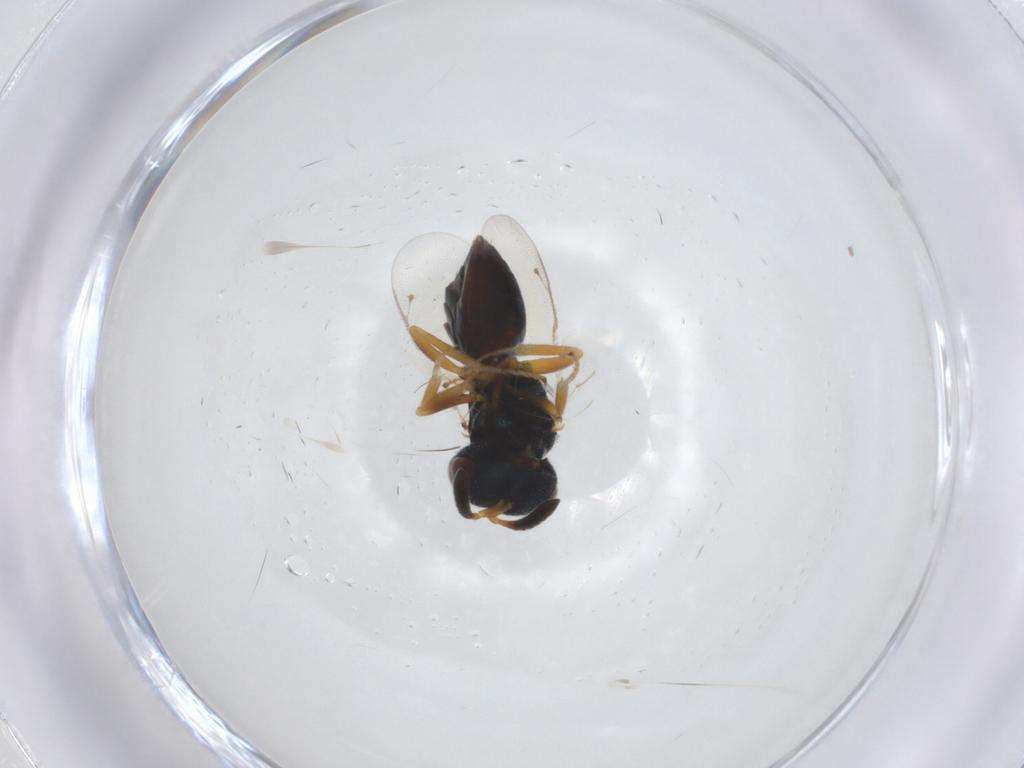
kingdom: Animalia
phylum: Arthropoda
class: Insecta
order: Hymenoptera
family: Pteromalidae
